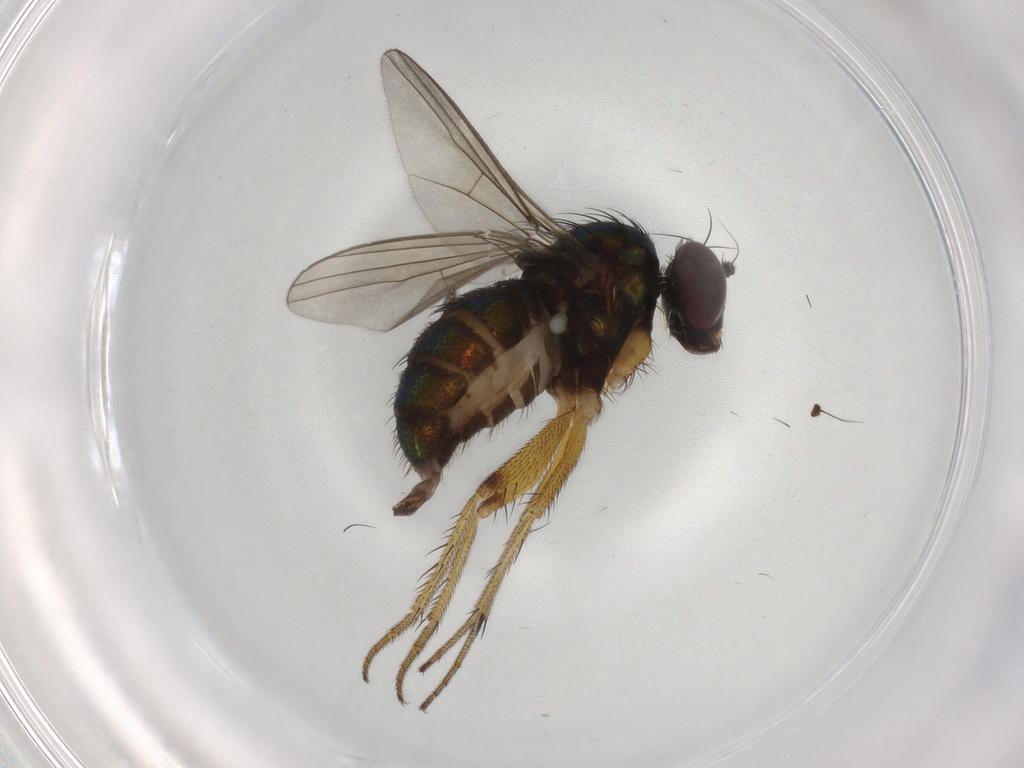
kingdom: Animalia
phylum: Arthropoda
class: Insecta
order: Diptera
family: Dolichopodidae
